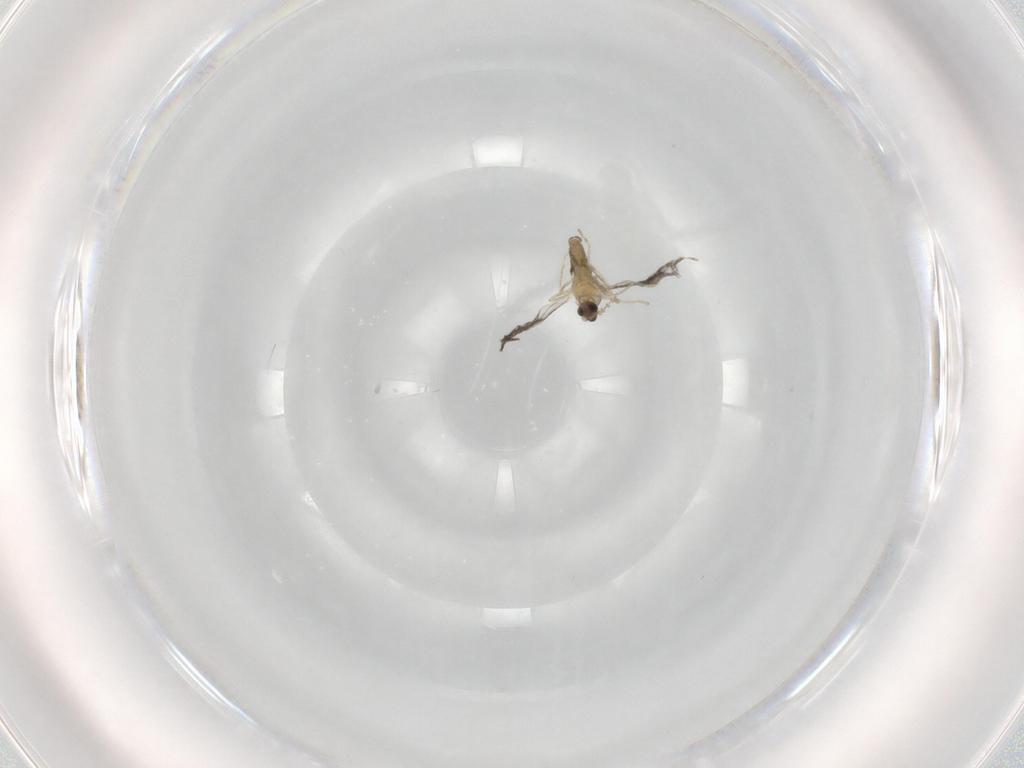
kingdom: Animalia
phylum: Arthropoda
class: Insecta
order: Diptera
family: Cecidomyiidae
